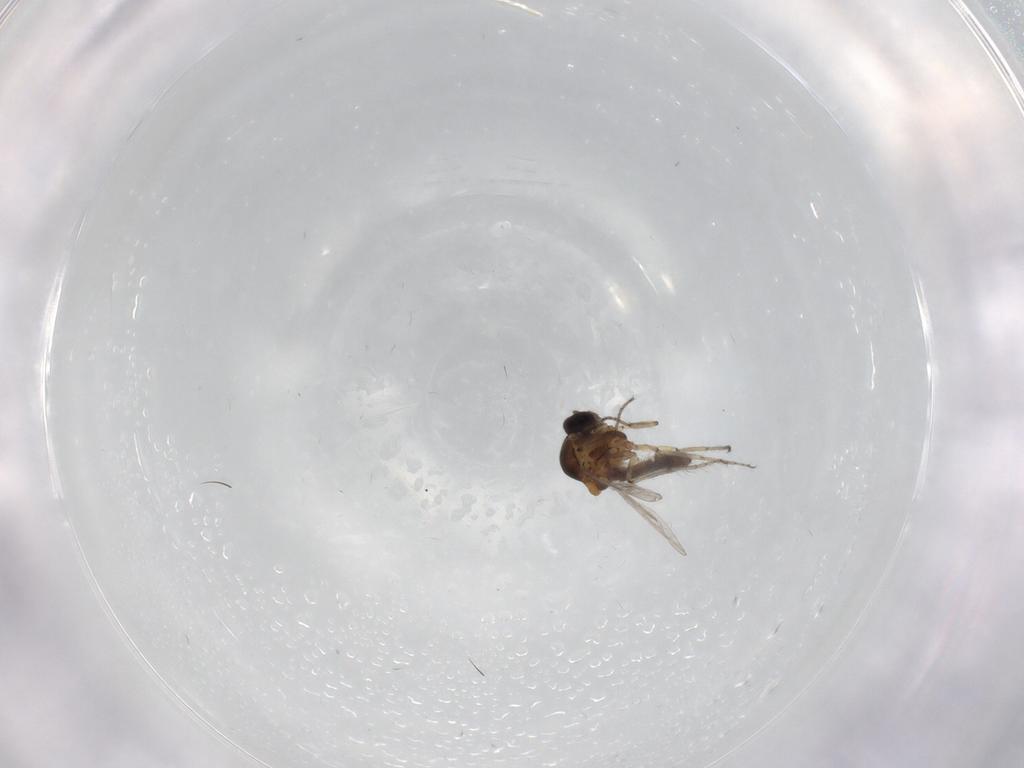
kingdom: Animalia
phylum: Arthropoda
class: Insecta
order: Diptera
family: Ceratopogonidae
